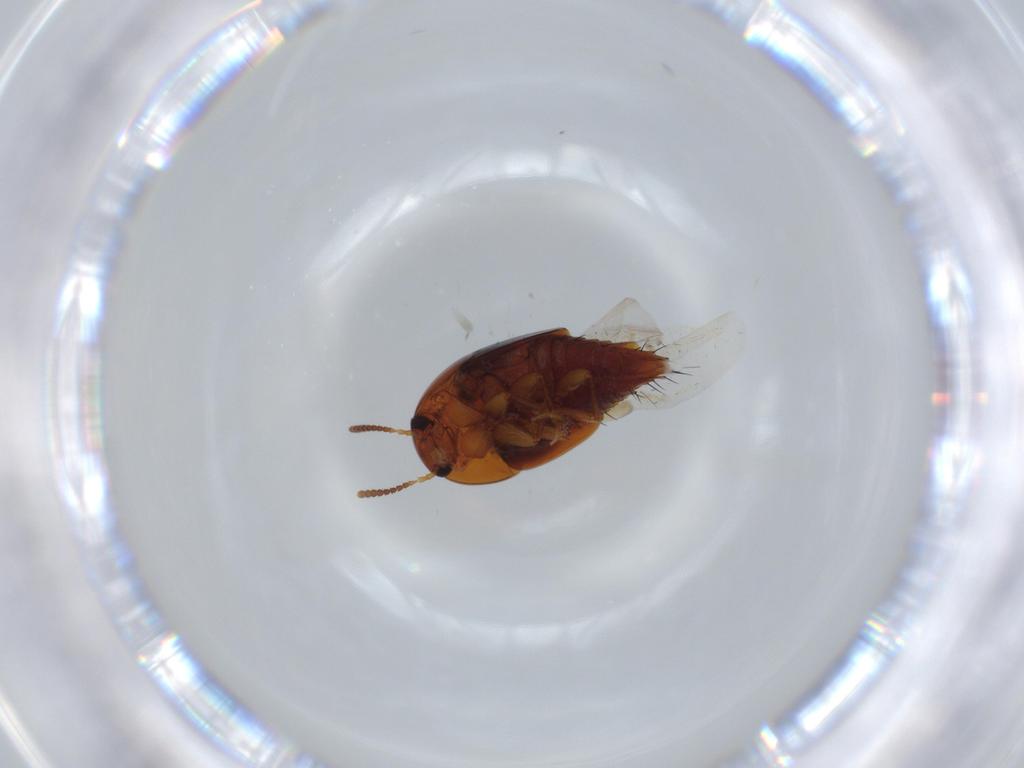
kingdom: Animalia
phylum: Arthropoda
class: Insecta
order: Coleoptera
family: Staphylinidae
